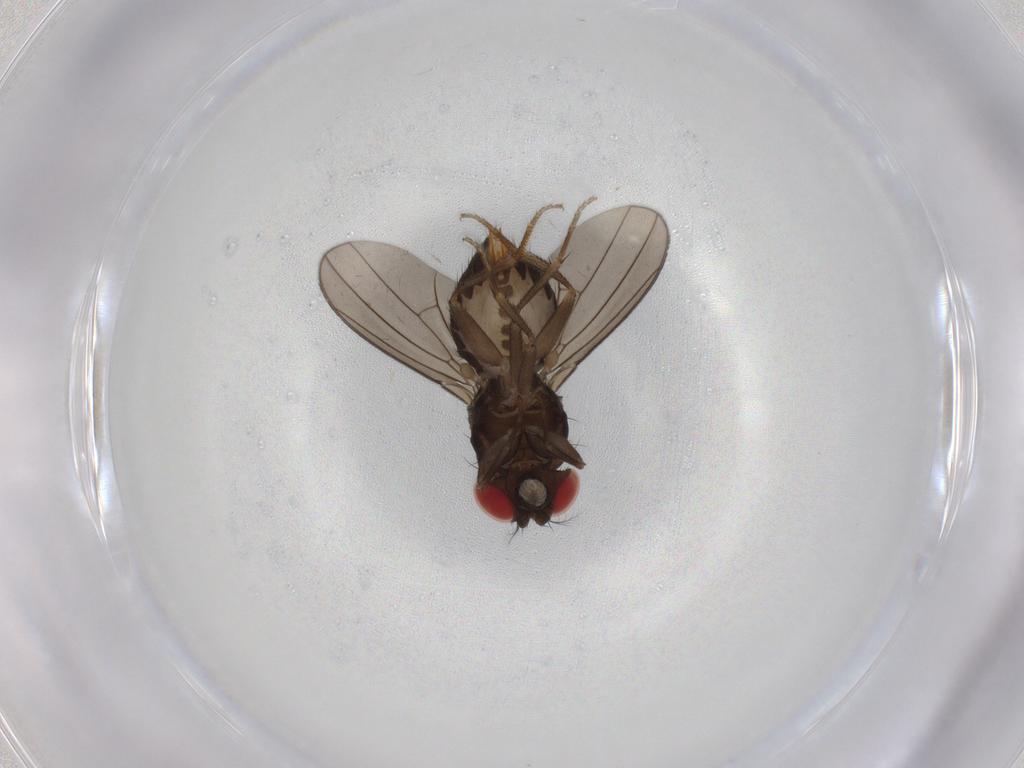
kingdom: Animalia
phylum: Arthropoda
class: Insecta
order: Diptera
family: Drosophilidae
